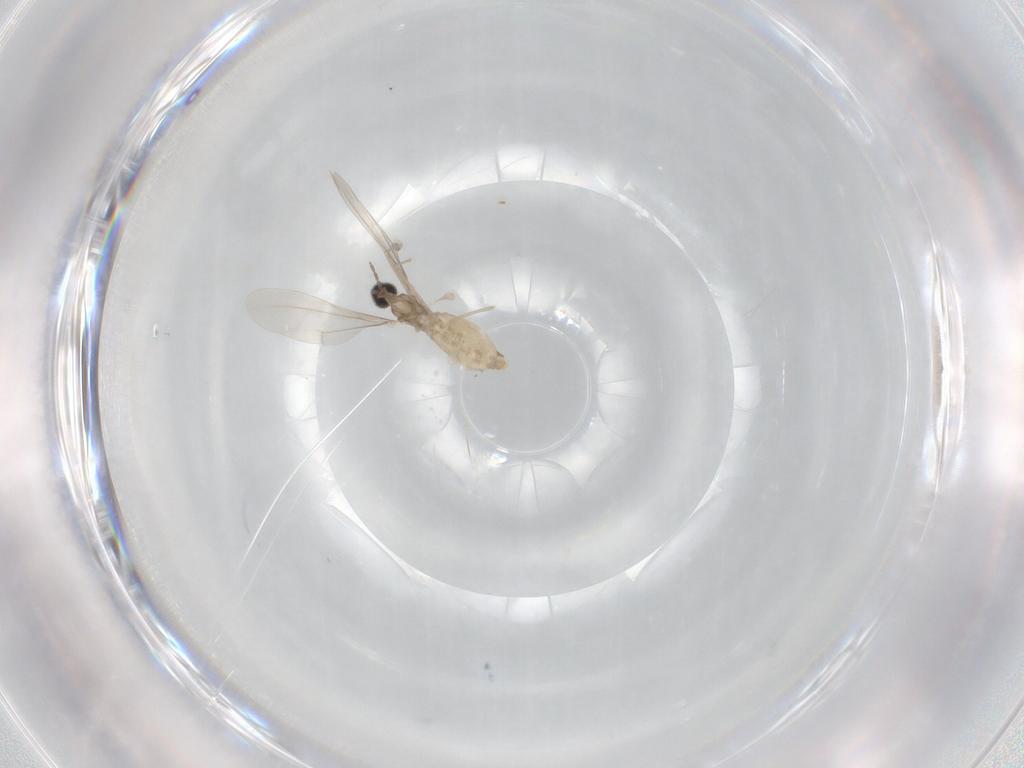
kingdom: Animalia
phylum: Arthropoda
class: Insecta
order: Diptera
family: Cecidomyiidae
